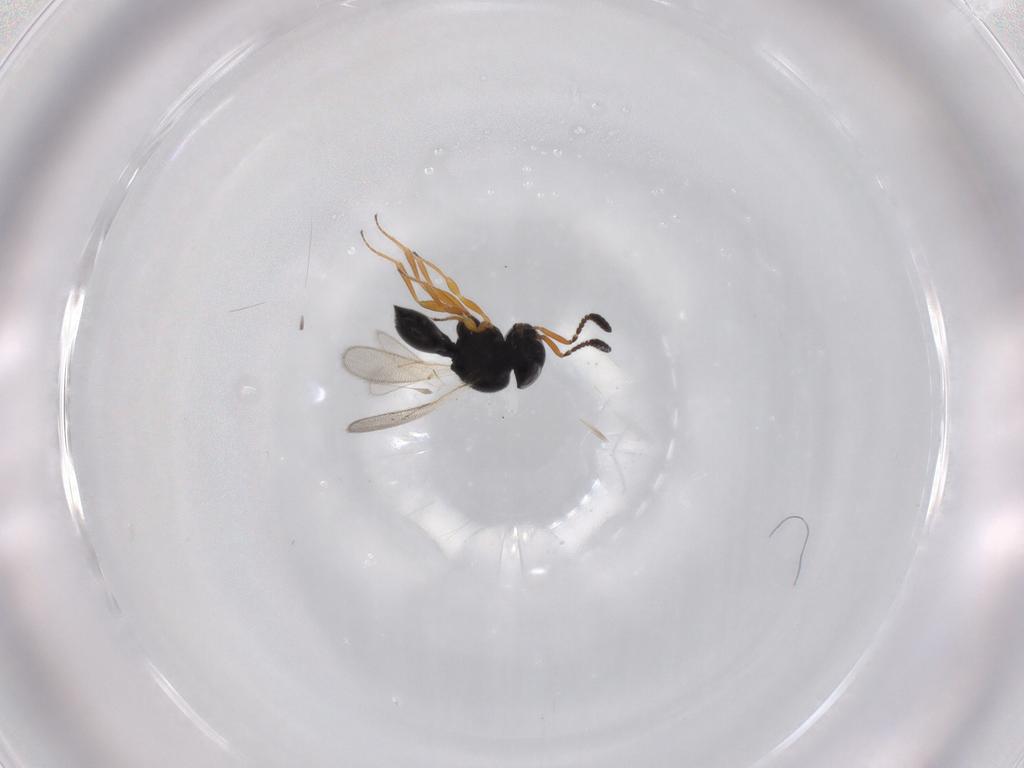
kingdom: Animalia
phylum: Arthropoda
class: Insecta
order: Hymenoptera
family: Scelionidae
